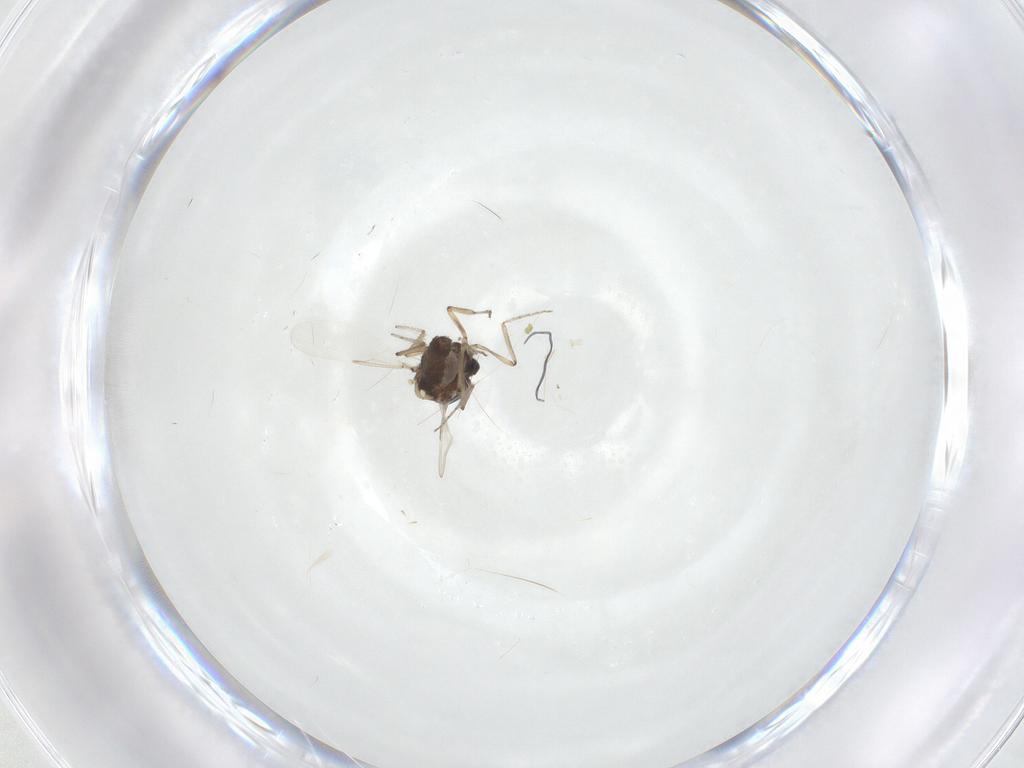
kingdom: Animalia
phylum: Arthropoda
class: Insecta
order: Diptera
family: Ceratopogonidae
